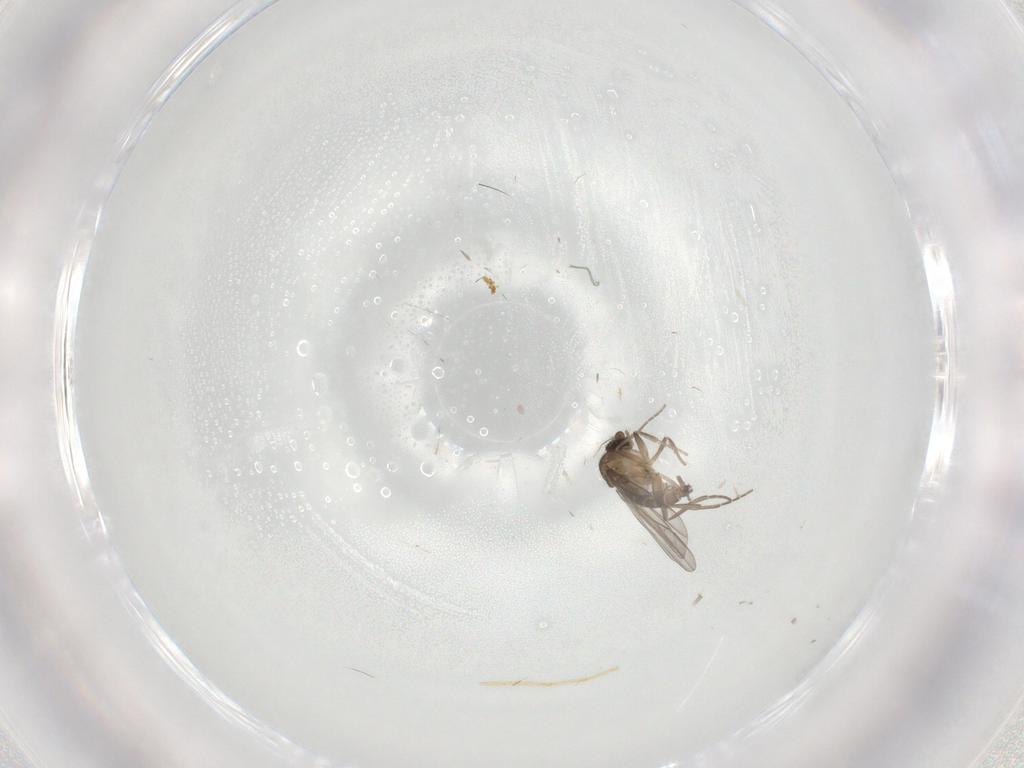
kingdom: Animalia
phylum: Arthropoda
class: Insecta
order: Diptera
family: Phoridae
